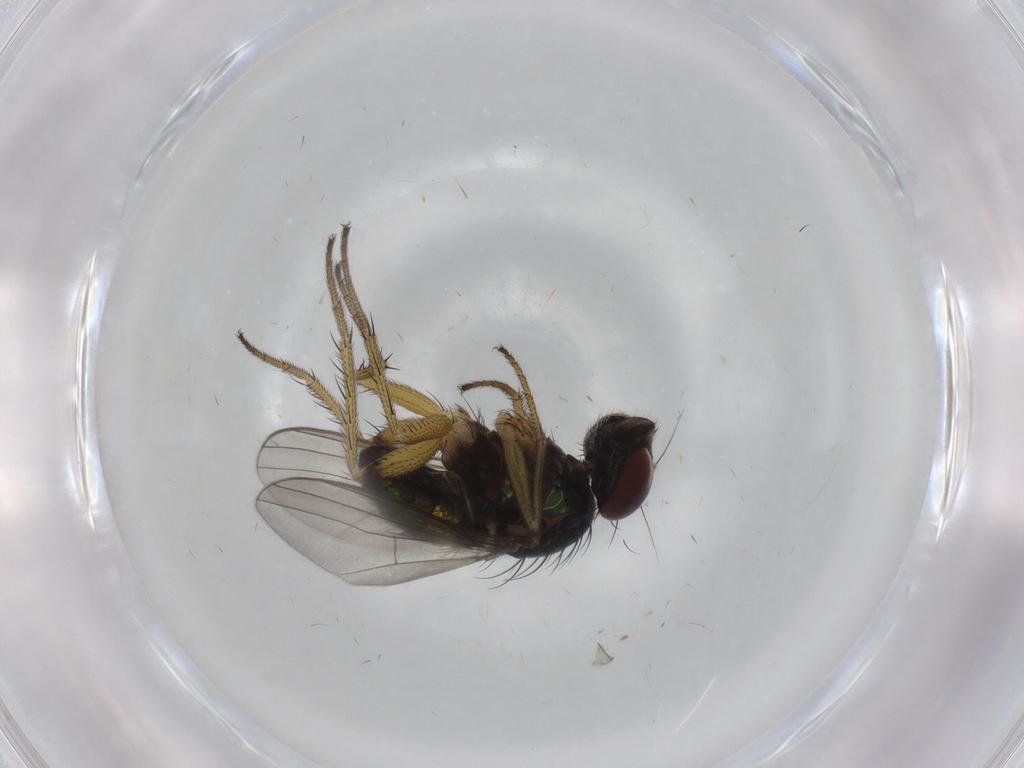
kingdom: Animalia
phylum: Arthropoda
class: Insecta
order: Diptera
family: Dolichopodidae
